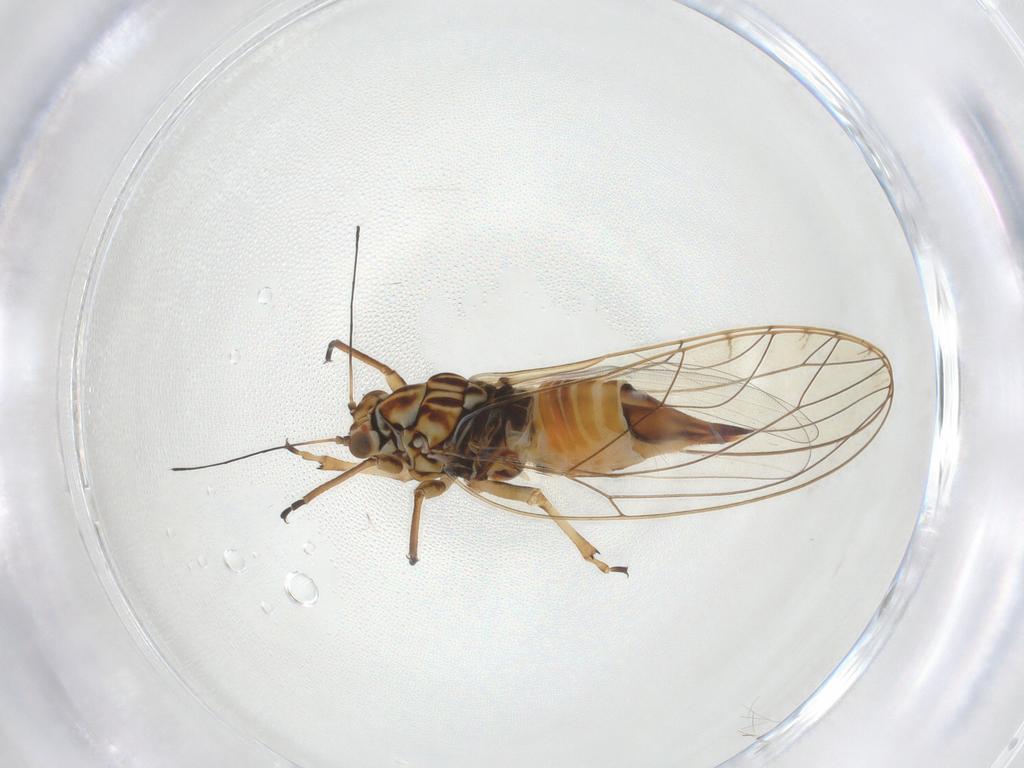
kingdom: Animalia
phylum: Arthropoda
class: Insecta
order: Hemiptera
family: Triozidae
